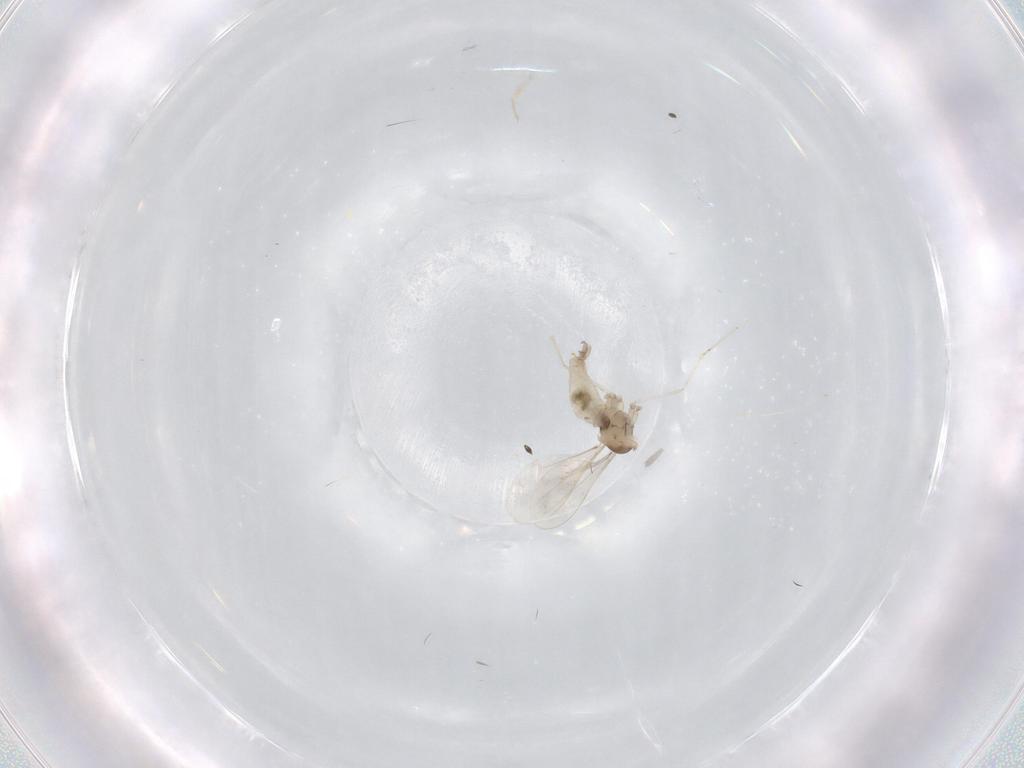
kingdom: Animalia
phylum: Arthropoda
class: Insecta
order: Diptera
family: Cecidomyiidae
